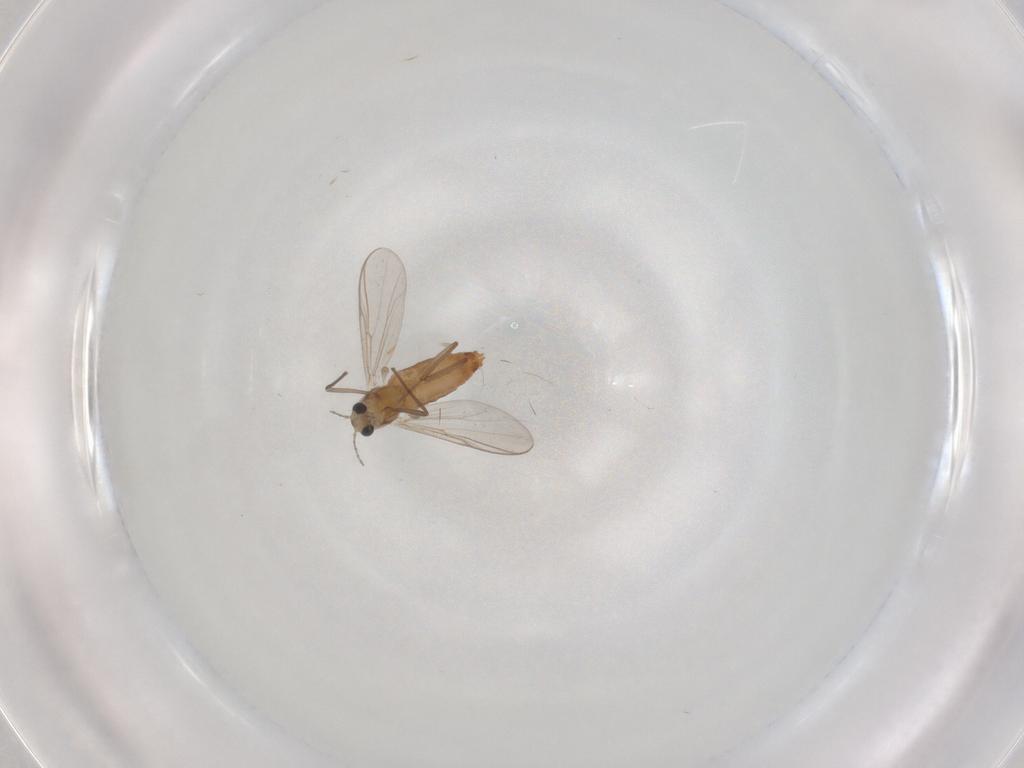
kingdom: Animalia
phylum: Arthropoda
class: Insecta
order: Diptera
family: Chironomidae
